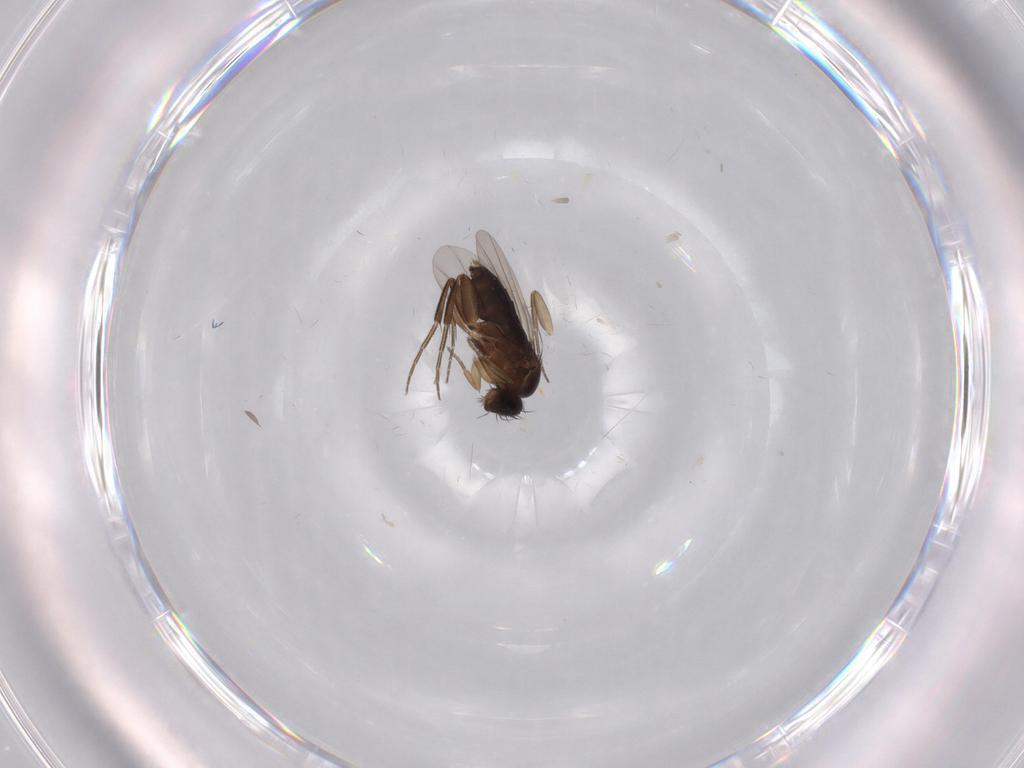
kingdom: Animalia
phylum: Arthropoda
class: Insecta
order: Diptera
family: Phoridae
